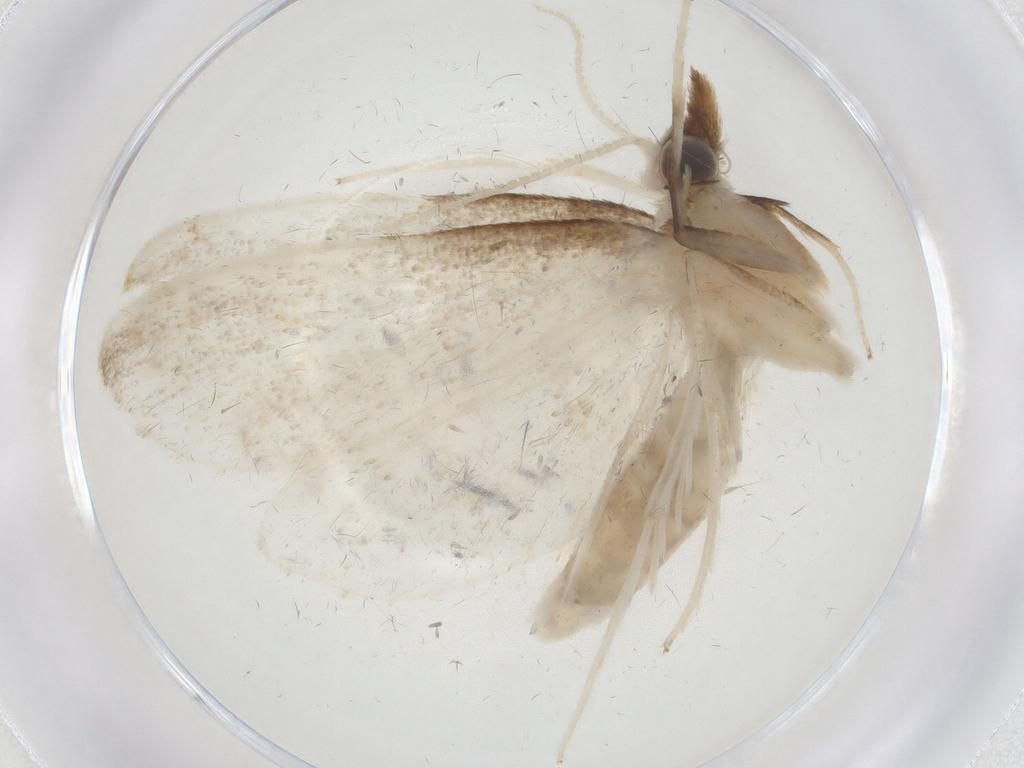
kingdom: Animalia
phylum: Arthropoda
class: Insecta
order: Lepidoptera
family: Crambidae
